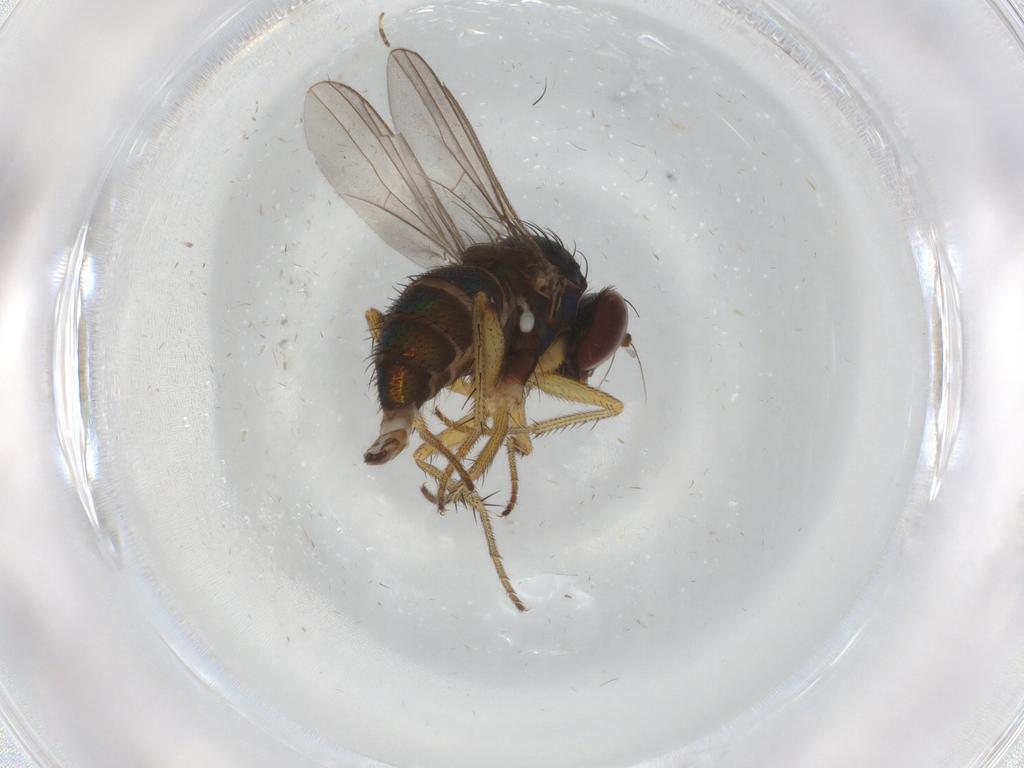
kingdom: Animalia
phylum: Arthropoda
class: Insecta
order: Diptera
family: Dolichopodidae
